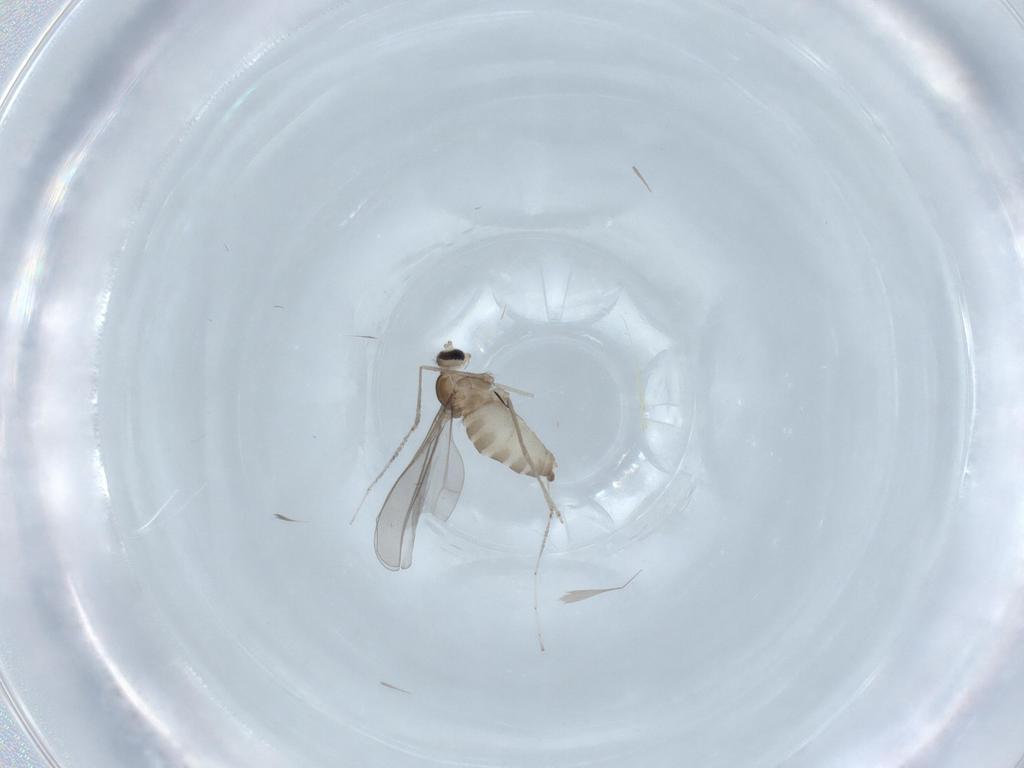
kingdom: Animalia
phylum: Arthropoda
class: Insecta
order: Diptera
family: Cecidomyiidae
